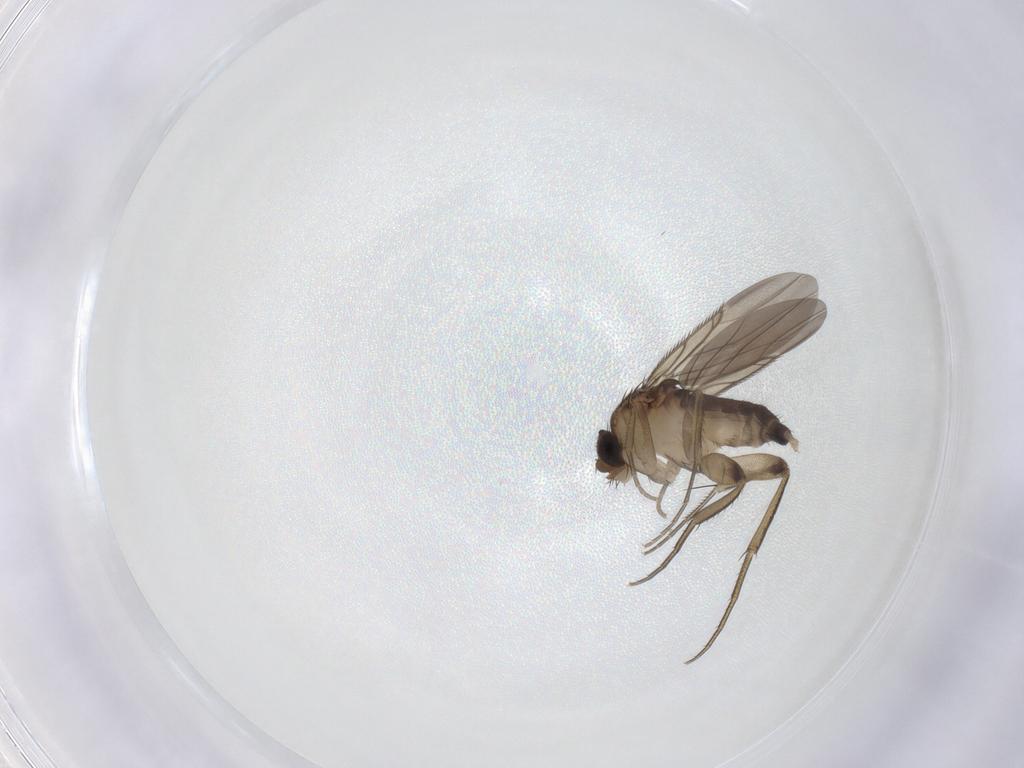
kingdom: Animalia
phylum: Arthropoda
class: Insecta
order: Diptera
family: Phoridae
